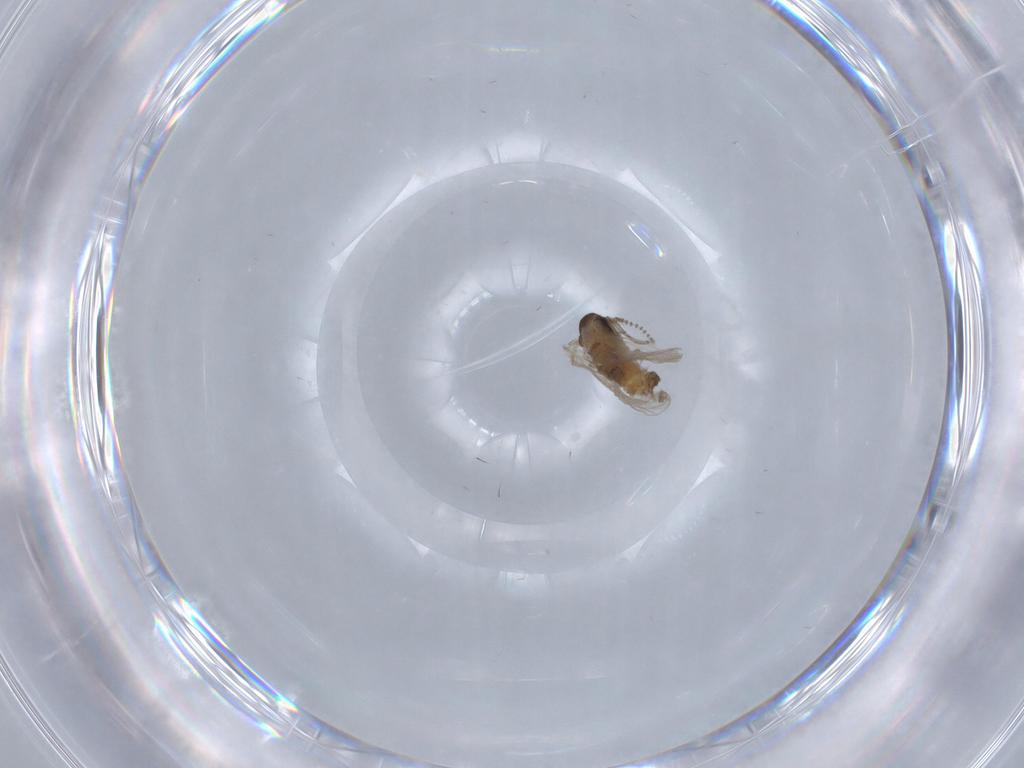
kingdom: Animalia
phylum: Arthropoda
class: Insecta
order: Diptera
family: Psychodidae
